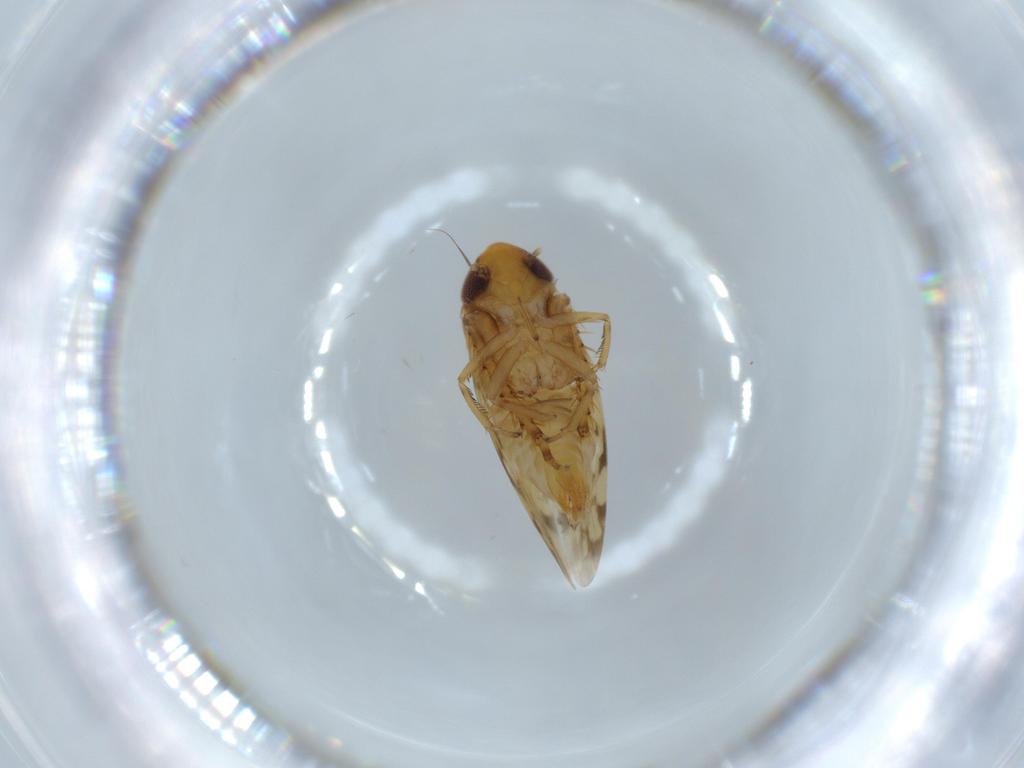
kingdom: Animalia
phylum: Arthropoda
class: Insecta
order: Hemiptera
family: Cicadellidae
